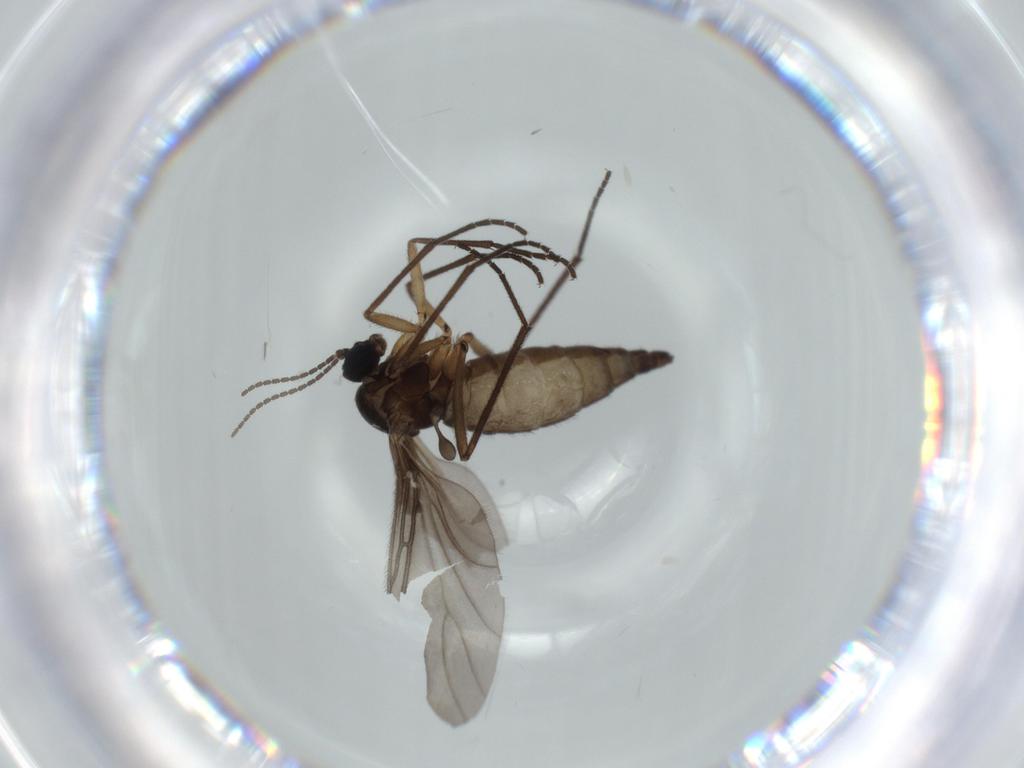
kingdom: Animalia
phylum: Arthropoda
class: Insecta
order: Diptera
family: Sciaridae
